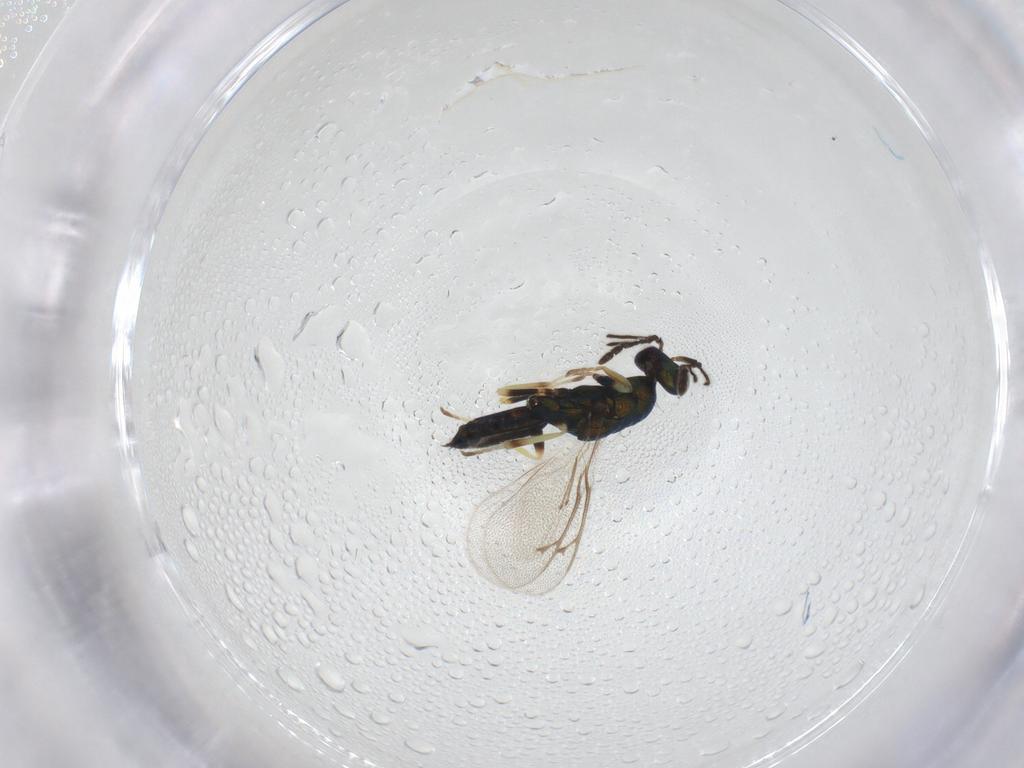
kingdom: Animalia
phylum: Arthropoda
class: Insecta
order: Hymenoptera
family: Eulophidae
